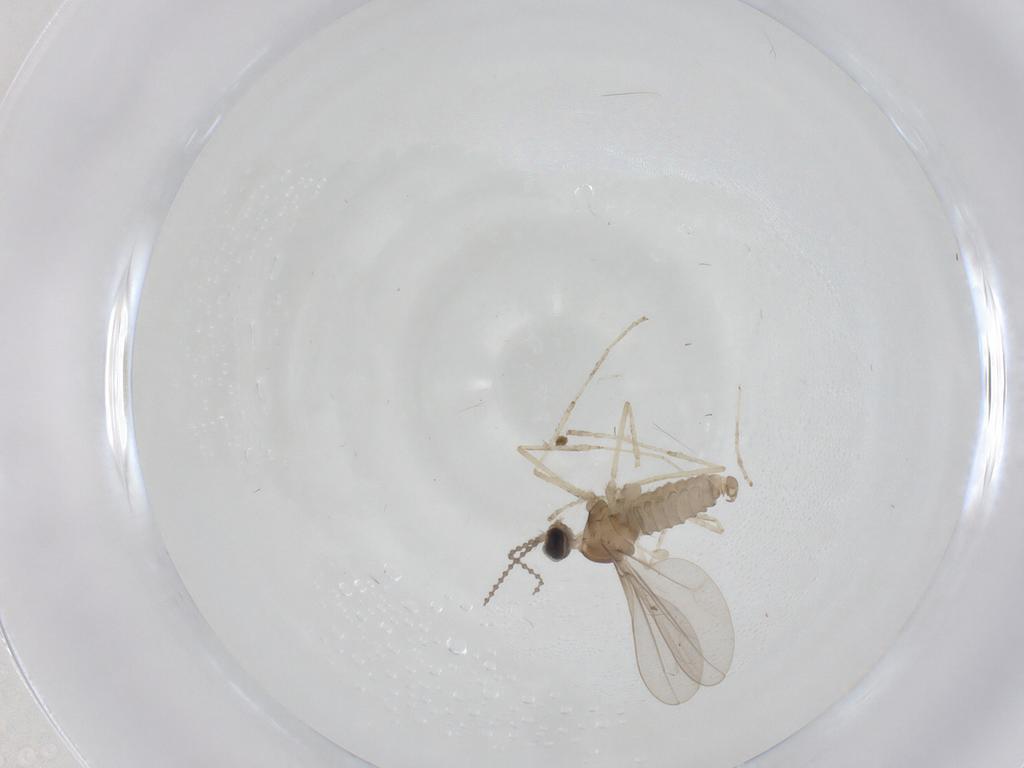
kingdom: Animalia
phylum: Arthropoda
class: Insecta
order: Diptera
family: Cecidomyiidae
